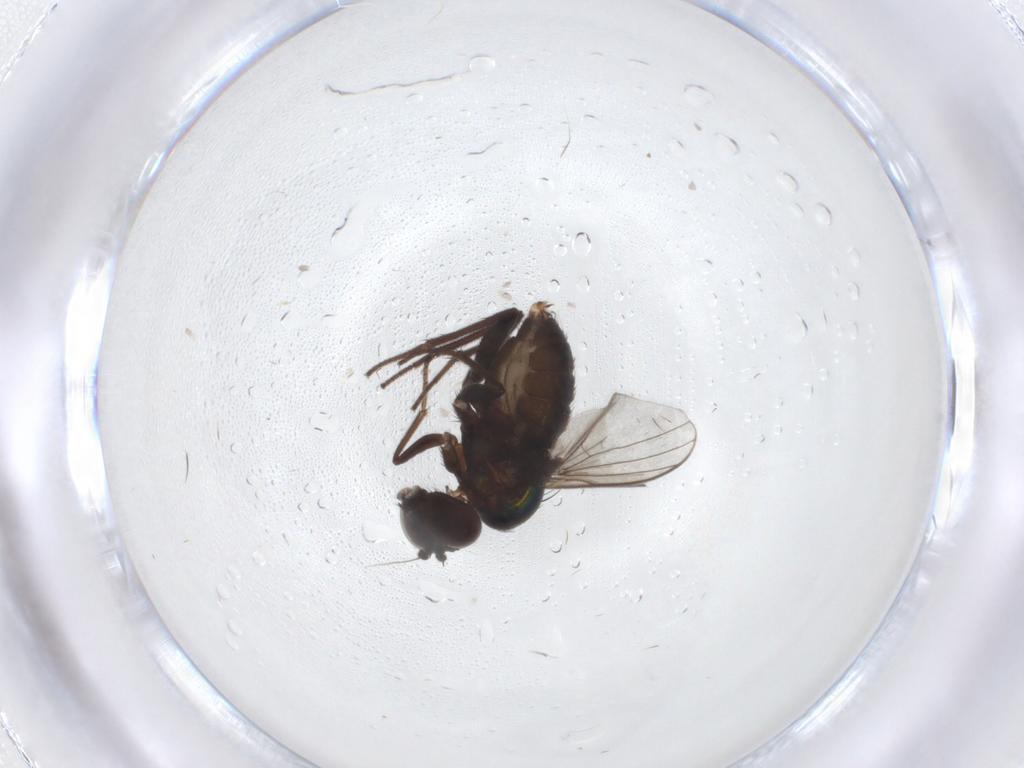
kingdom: Animalia
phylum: Arthropoda
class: Insecta
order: Diptera
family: Dolichopodidae
